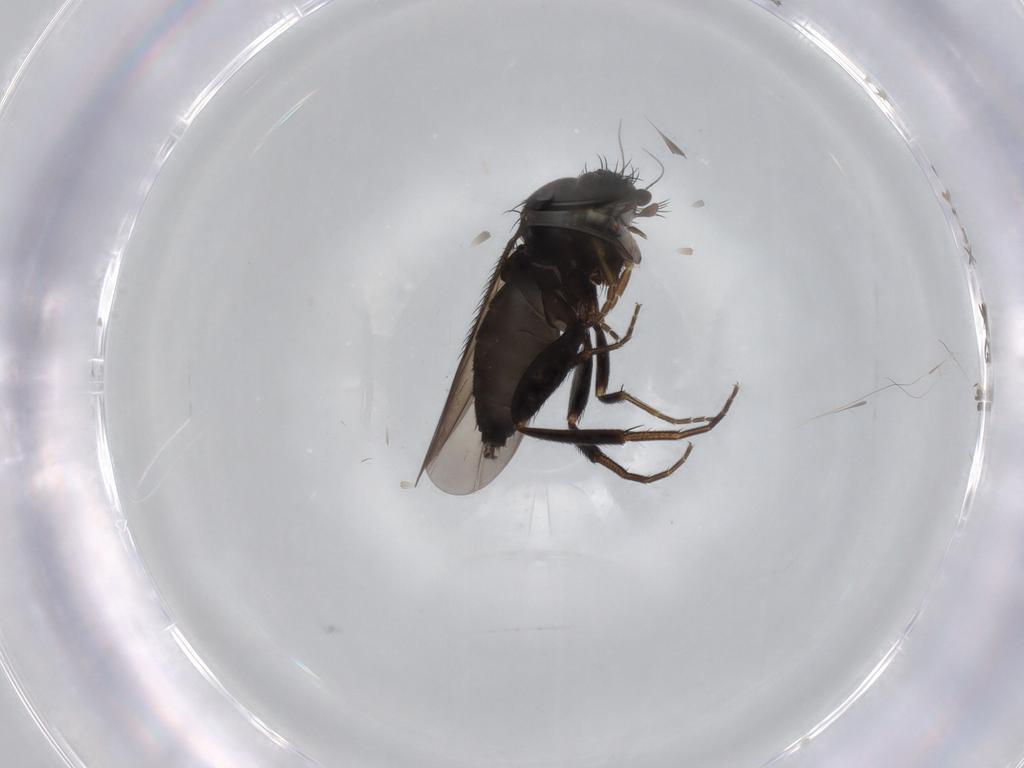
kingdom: Animalia
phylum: Arthropoda
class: Insecta
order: Diptera
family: Phoridae
